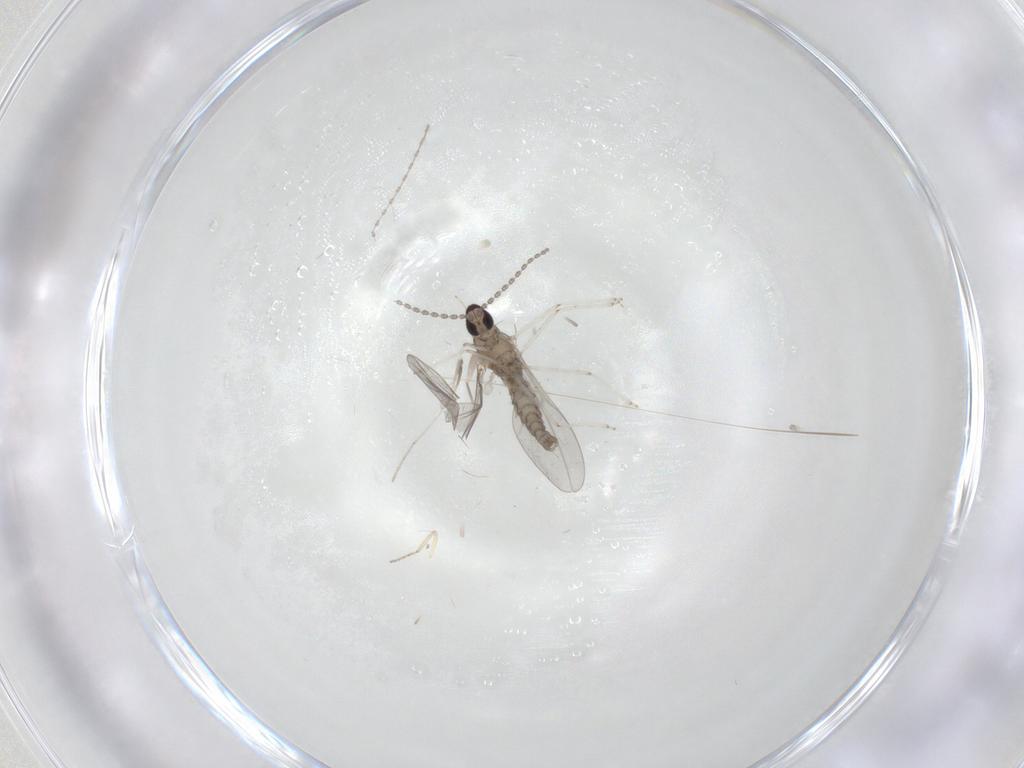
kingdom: Animalia
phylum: Arthropoda
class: Insecta
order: Diptera
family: Cecidomyiidae
